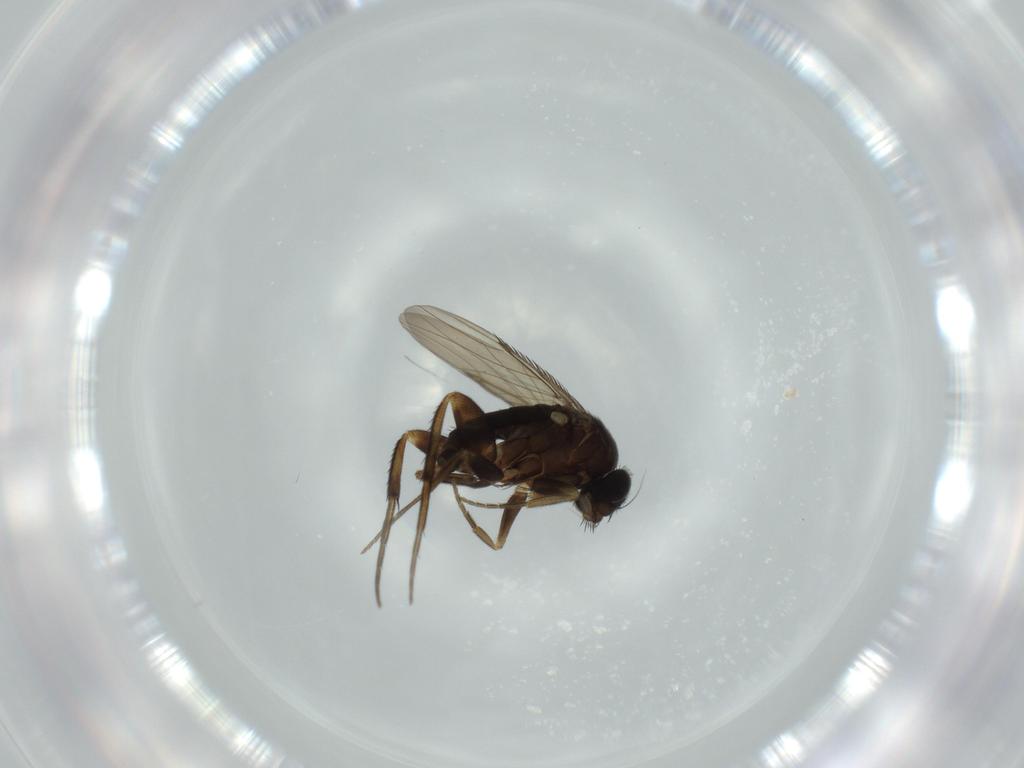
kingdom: Animalia
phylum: Arthropoda
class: Insecta
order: Diptera
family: Phoridae
